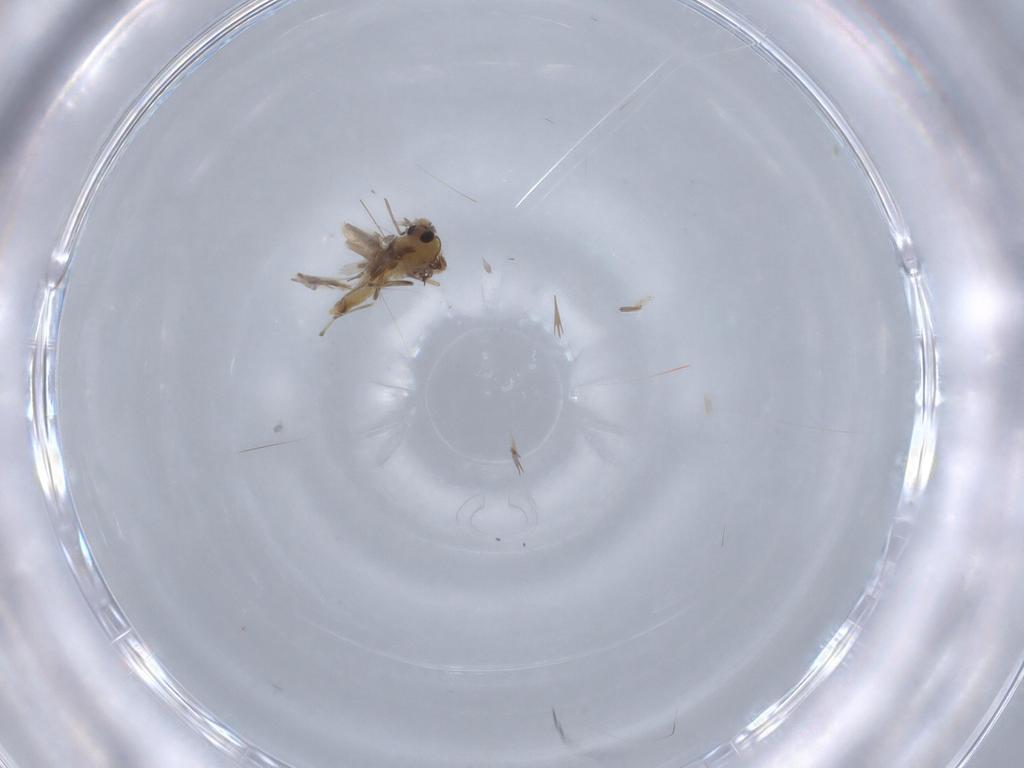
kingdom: Animalia
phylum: Arthropoda
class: Insecta
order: Diptera
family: Chironomidae
